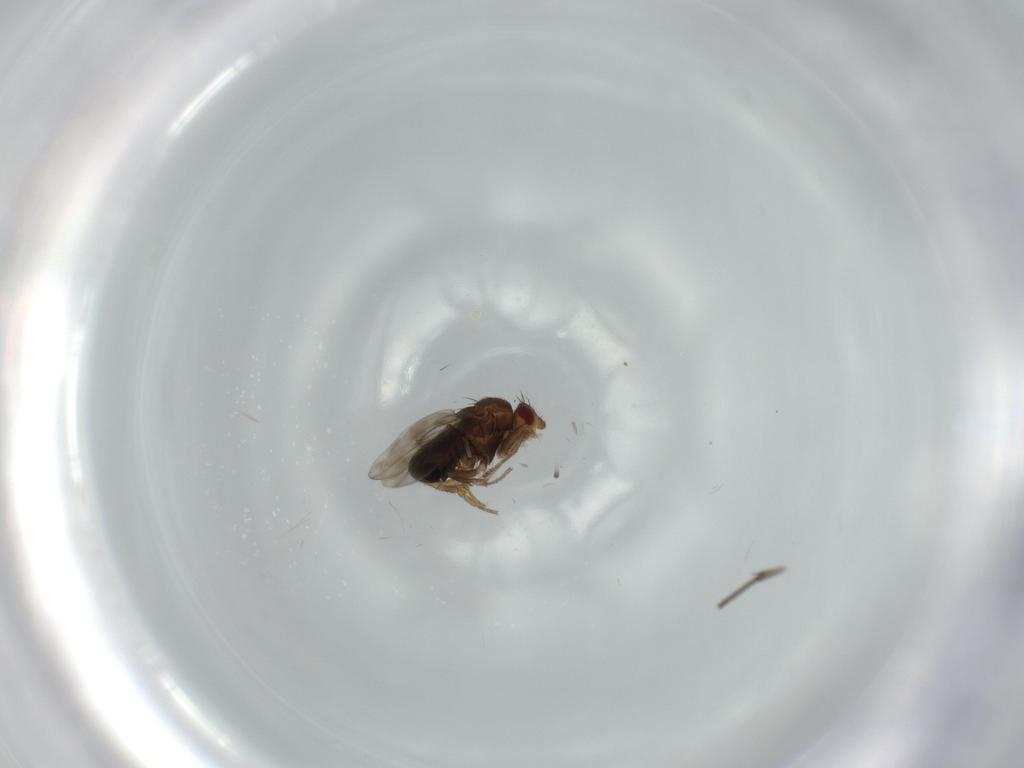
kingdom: Animalia
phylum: Arthropoda
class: Insecta
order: Diptera
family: Sphaeroceridae
